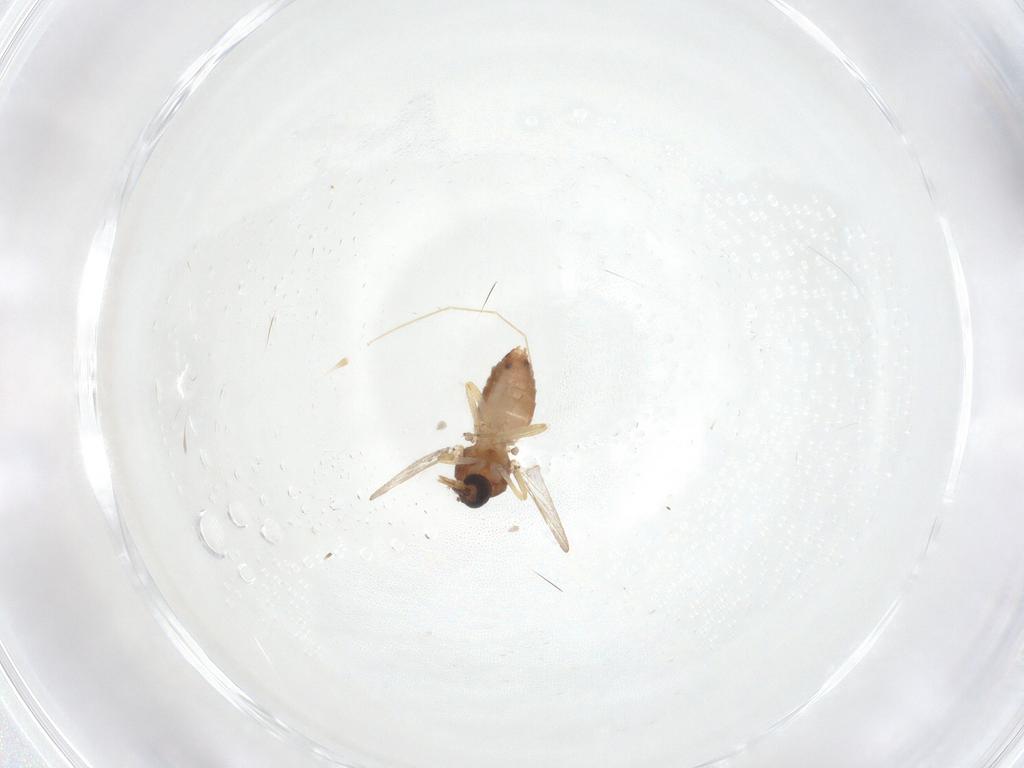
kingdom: Animalia
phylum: Arthropoda
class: Insecta
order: Diptera
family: Ceratopogonidae
